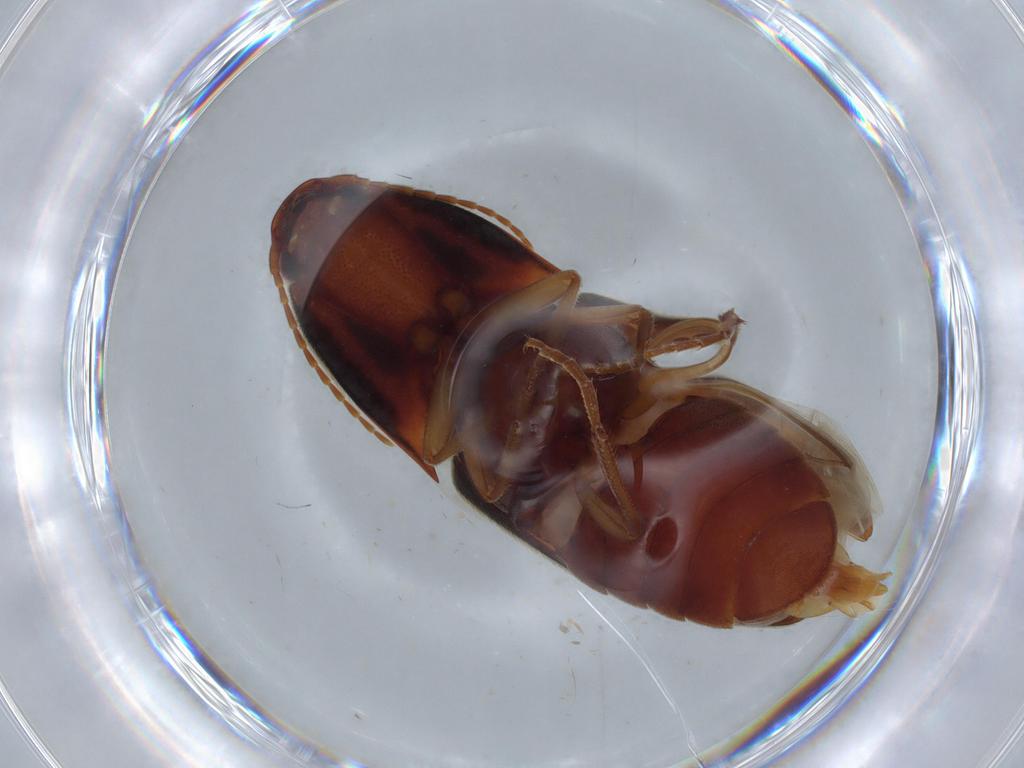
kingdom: Animalia
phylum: Arthropoda
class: Insecta
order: Coleoptera
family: Elateridae
